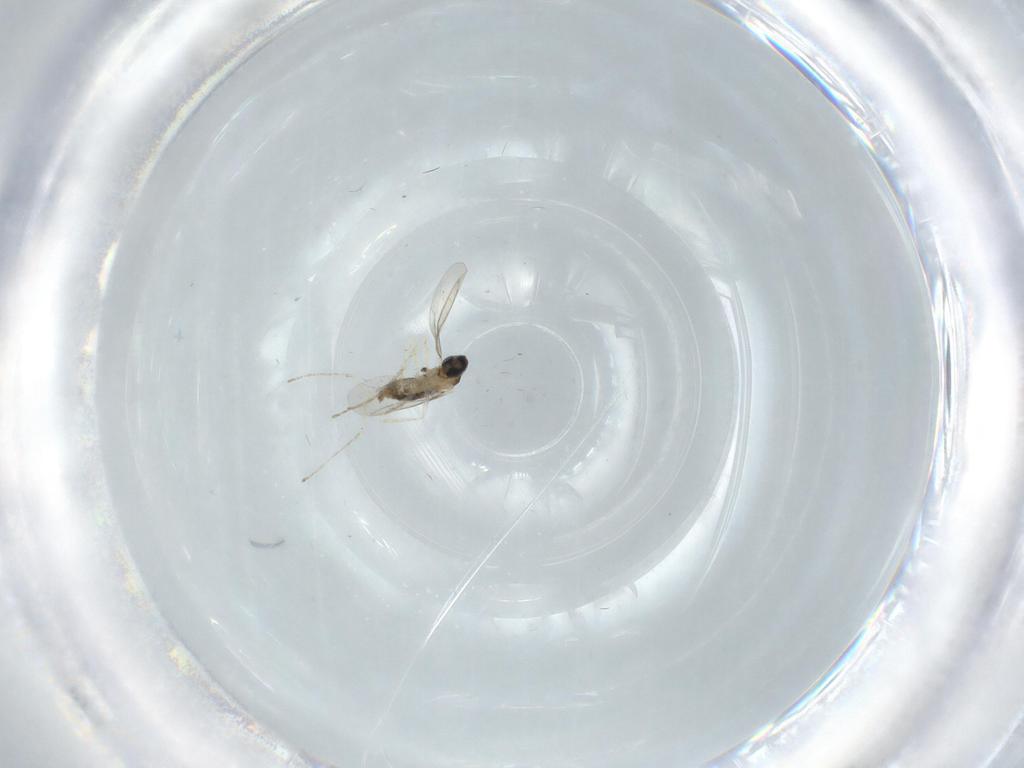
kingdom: Animalia
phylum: Arthropoda
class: Insecta
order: Diptera
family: Cecidomyiidae
